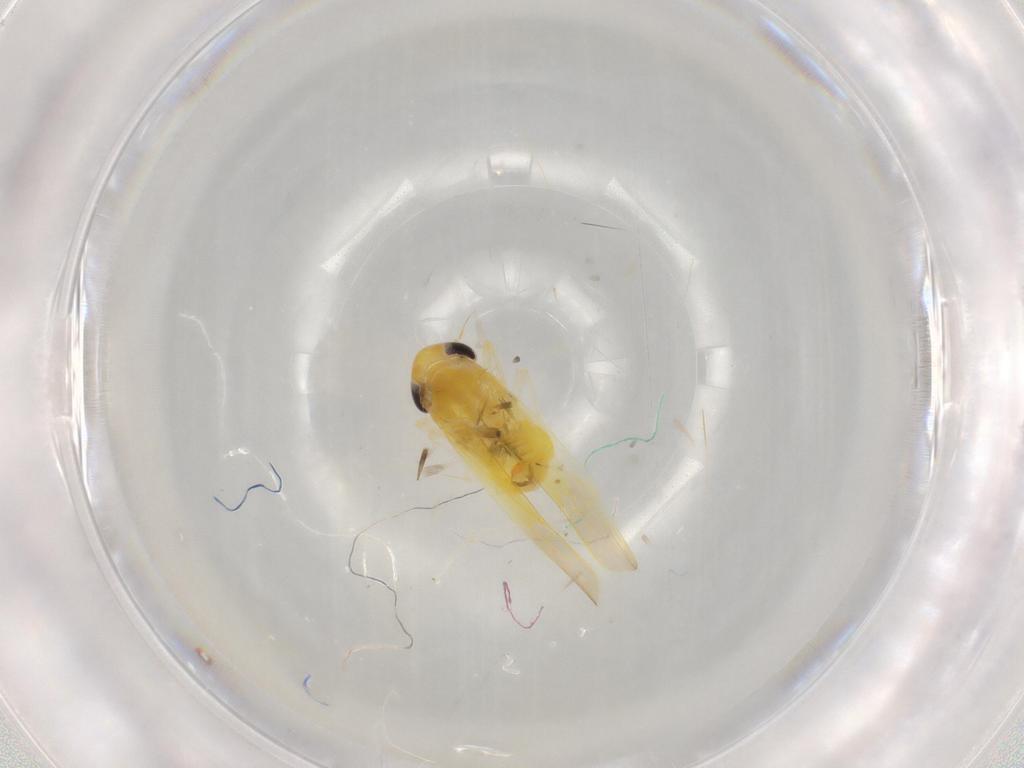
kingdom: Animalia
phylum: Arthropoda
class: Insecta
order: Hemiptera
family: Cicadellidae
